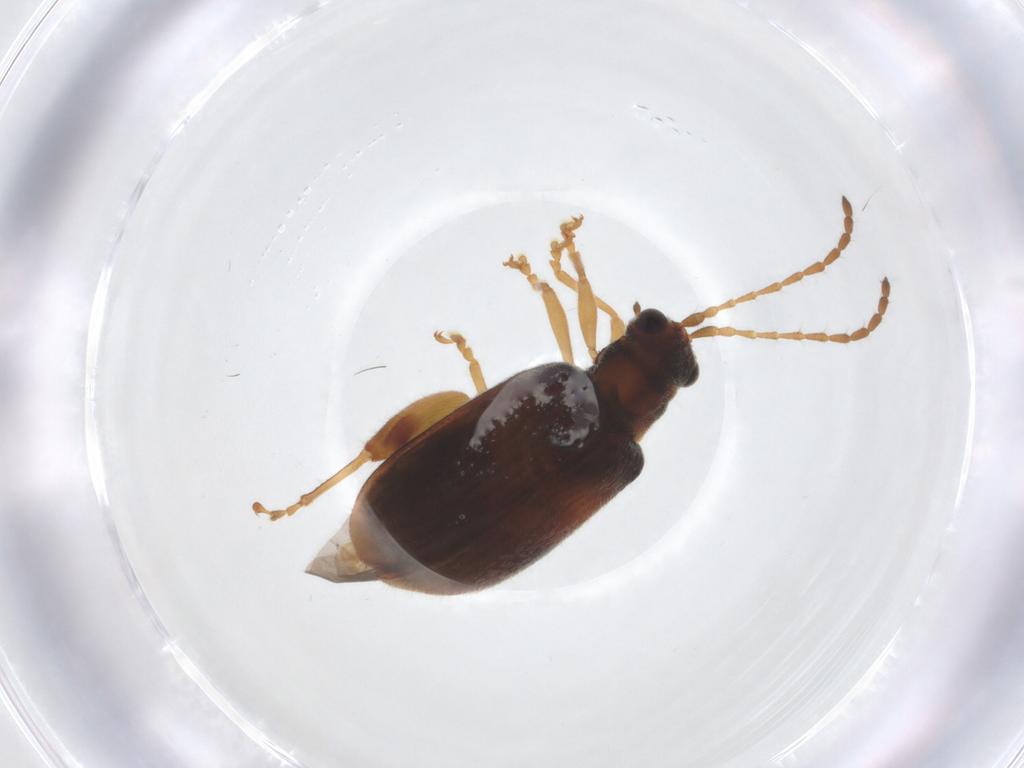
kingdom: Animalia
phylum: Arthropoda
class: Insecta
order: Coleoptera
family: Chrysomelidae
